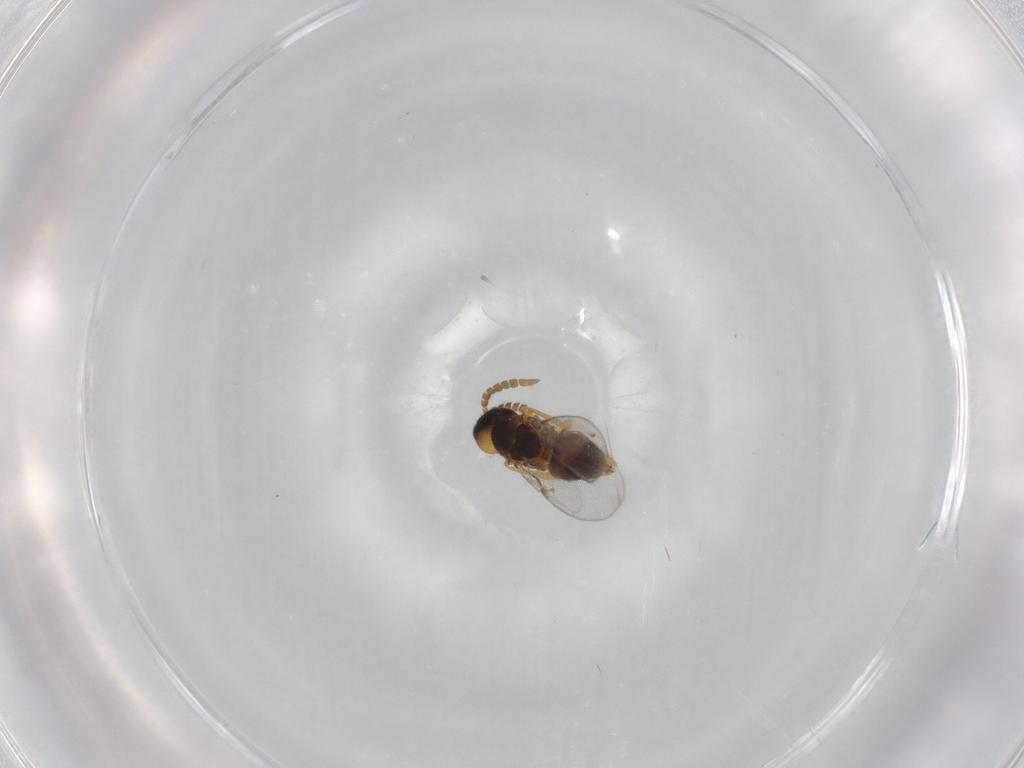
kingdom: Animalia
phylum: Arthropoda
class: Insecta
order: Hymenoptera
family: Encyrtidae
